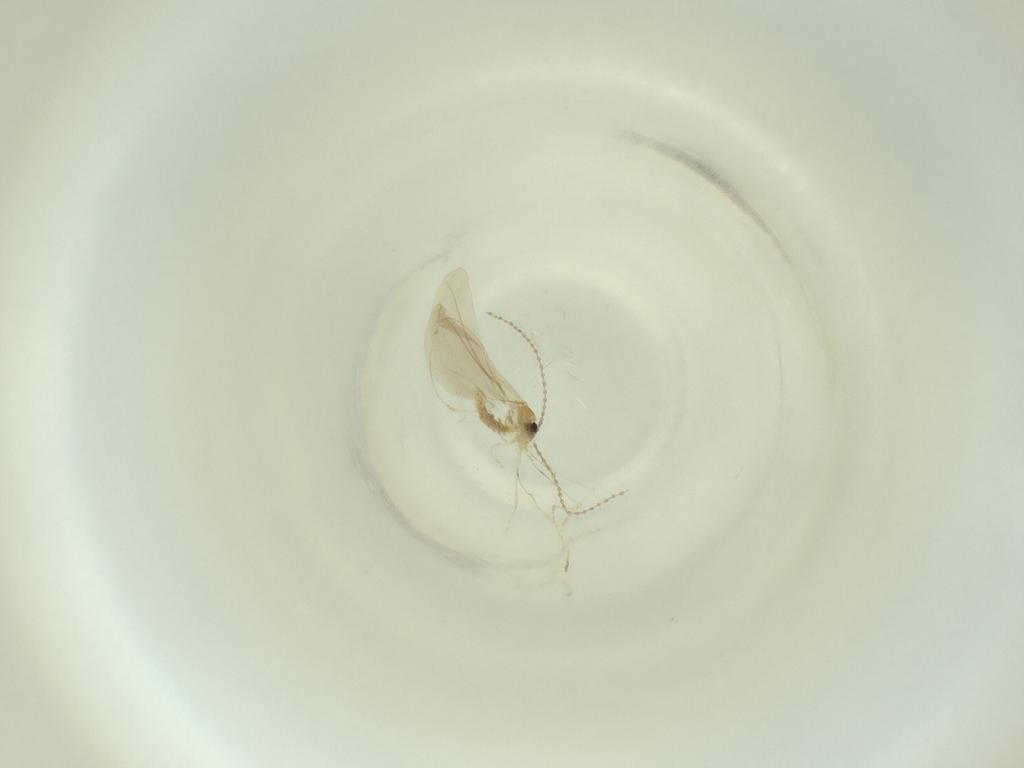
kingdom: Animalia
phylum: Arthropoda
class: Insecta
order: Diptera
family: Cecidomyiidae
